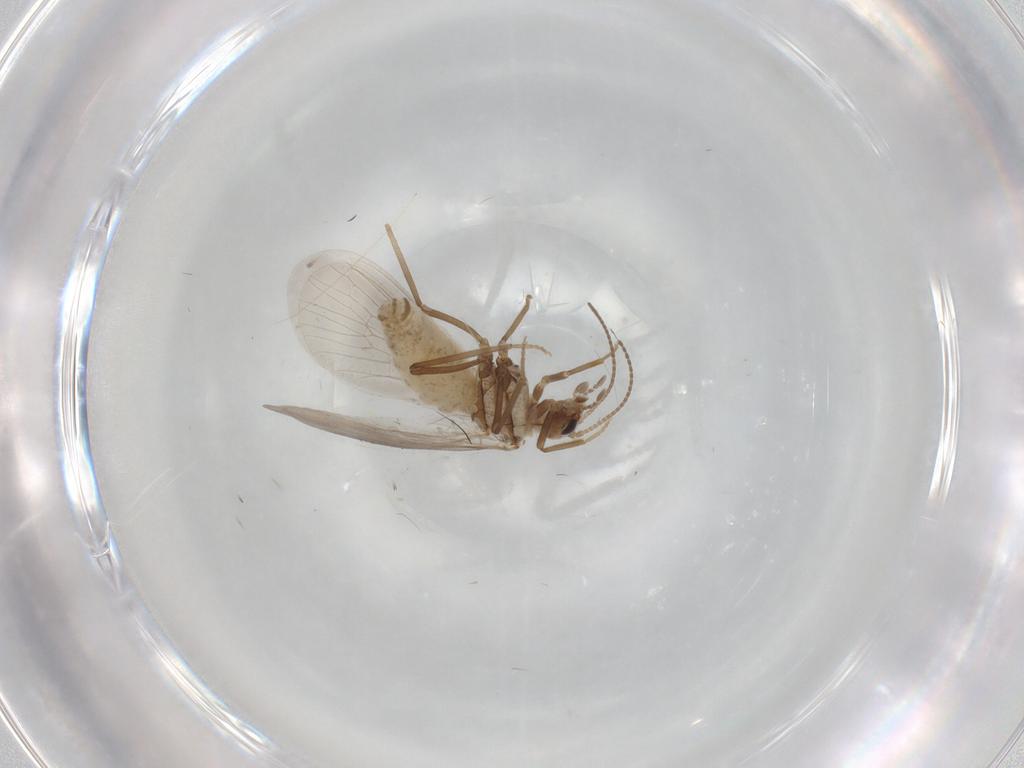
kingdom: Animalia
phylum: Arthropoda
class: Insecta
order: Neuroptera
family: Coniopterygidae
